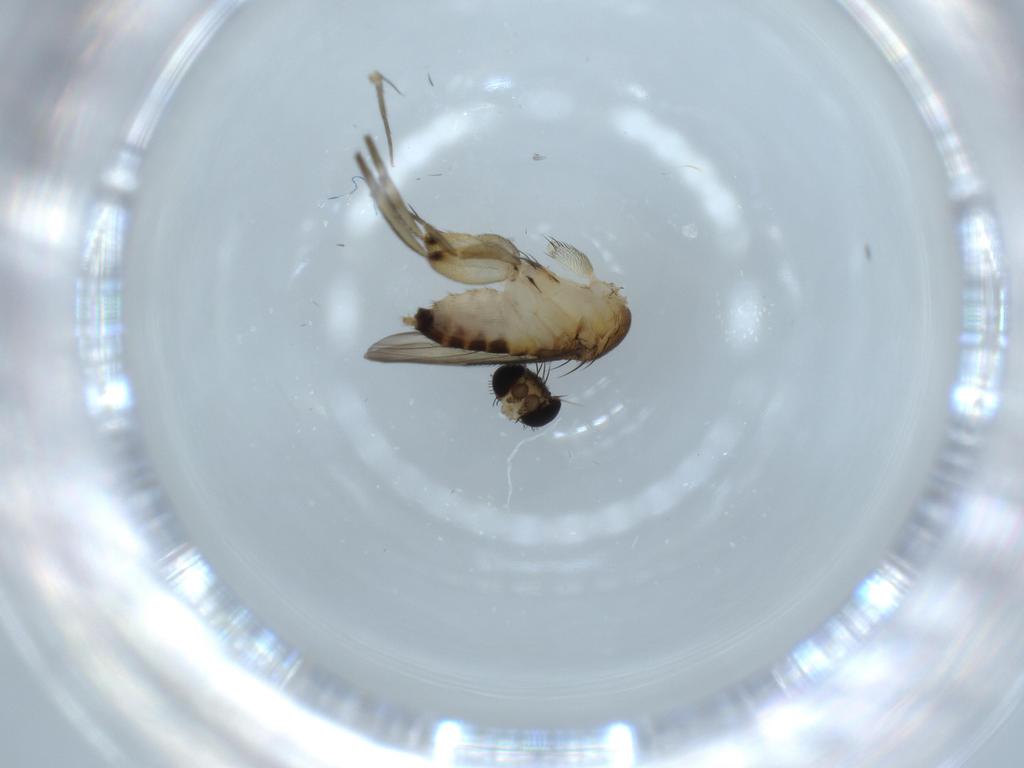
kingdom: Animalia
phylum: Arthropoda
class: Insecta
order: Diptera
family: Phoridae
